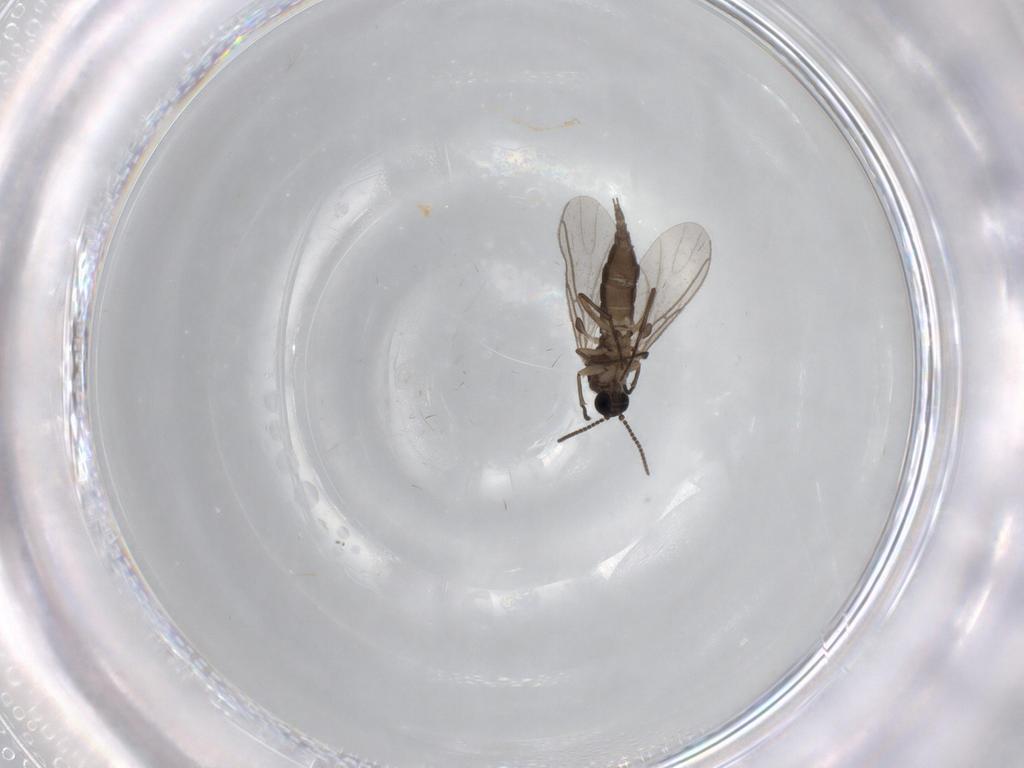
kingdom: Animalia
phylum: Arthropoda
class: Insecta
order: Diptera
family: Sciaridae
